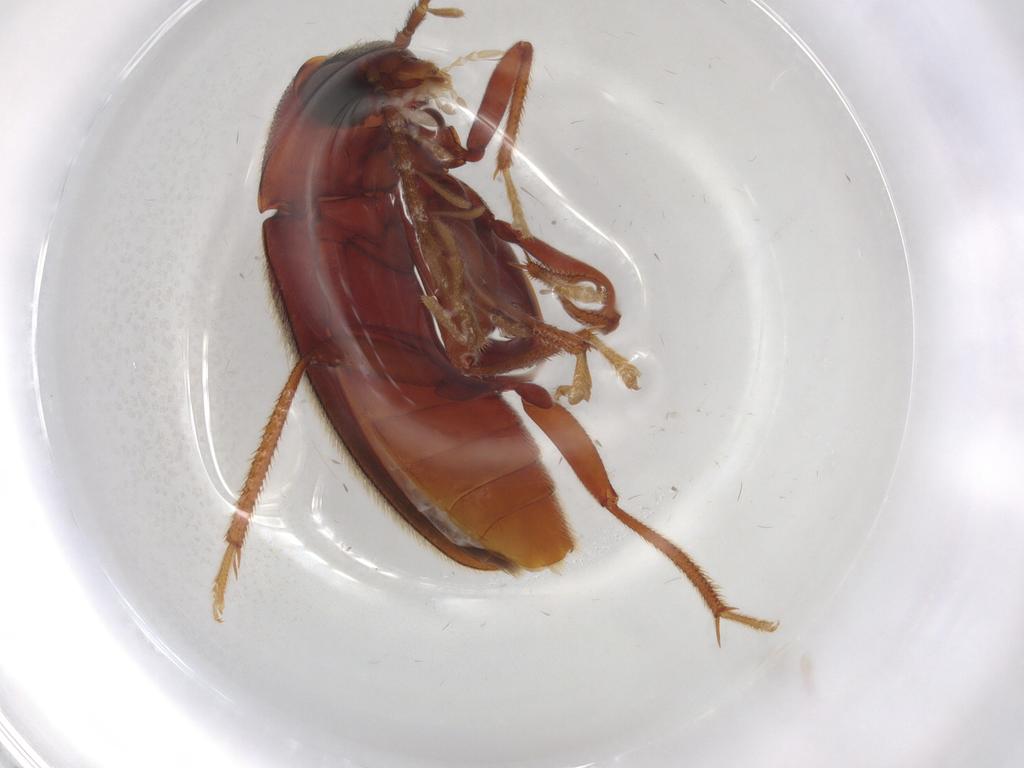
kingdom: Animalia
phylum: Arthropoda
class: Insecta
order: Coleoptera
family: Ptilodactylidae
